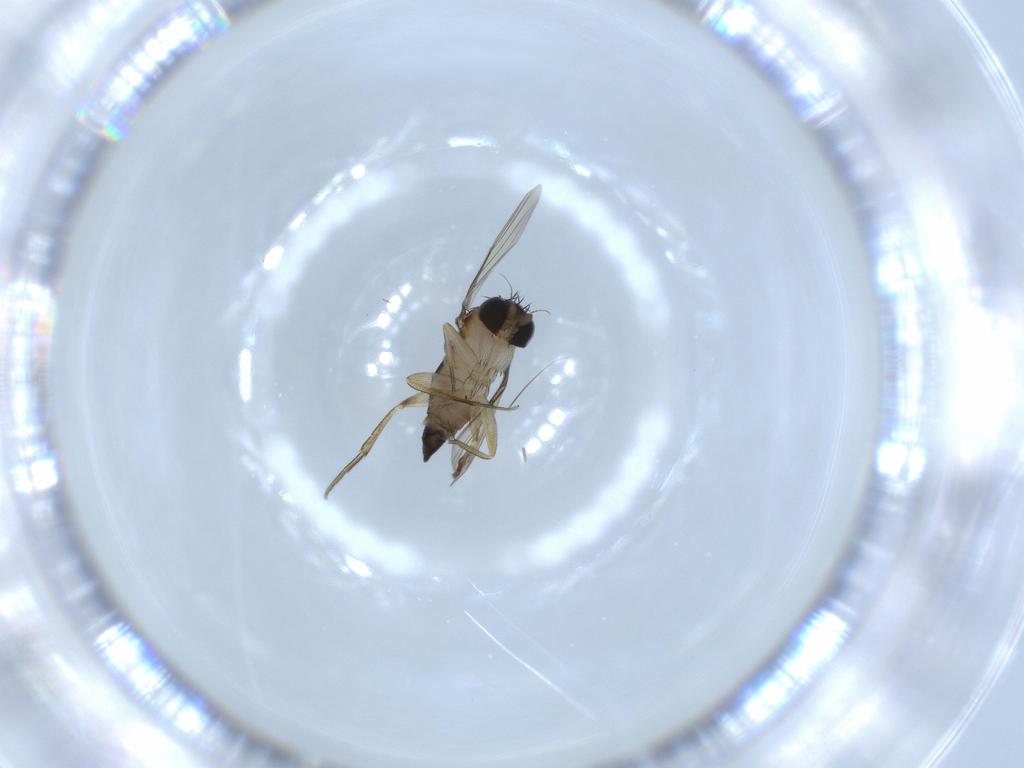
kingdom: Animalia
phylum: Arthropoda
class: Insecta
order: Diptera
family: Phoridae
